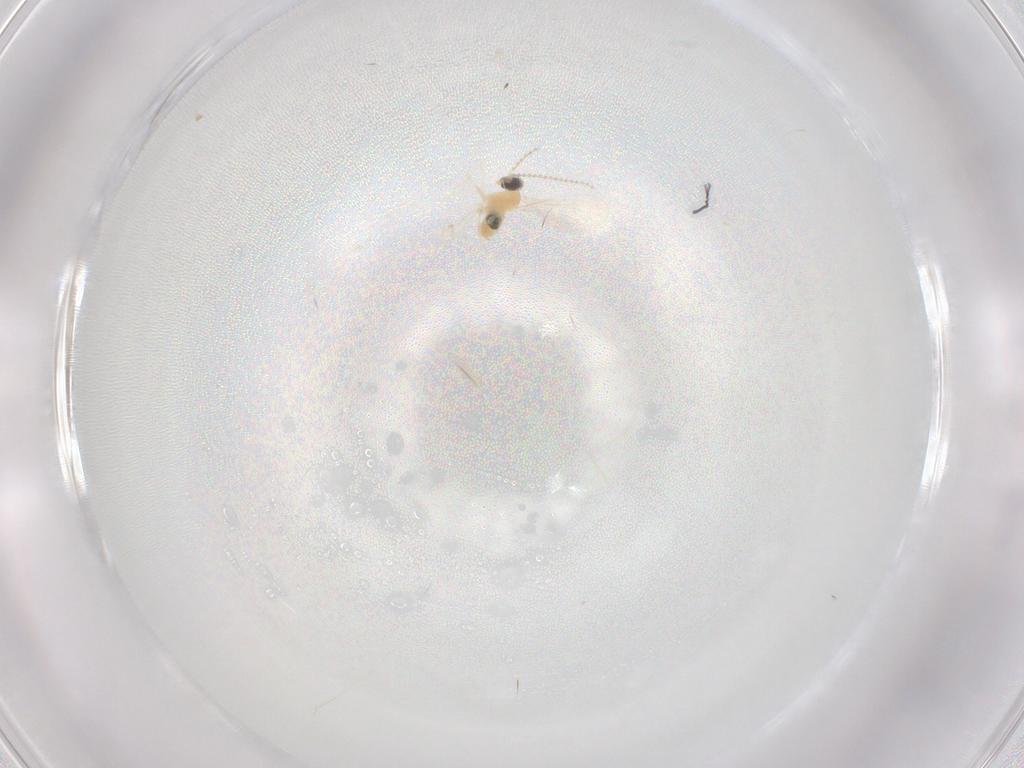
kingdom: Animalia
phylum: Arthropoda
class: Insecta
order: Diptera
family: Cecidomyiidae
